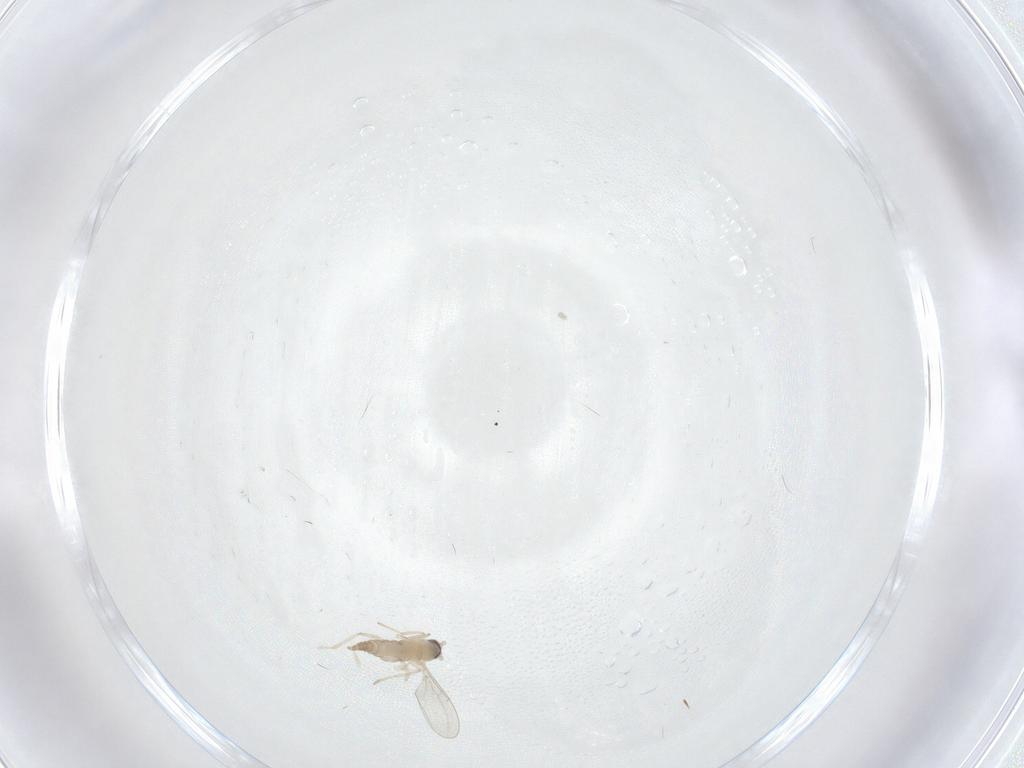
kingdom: Animalia
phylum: Arthropoda
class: Insecta
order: Diptera
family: Cecidomyiidae
